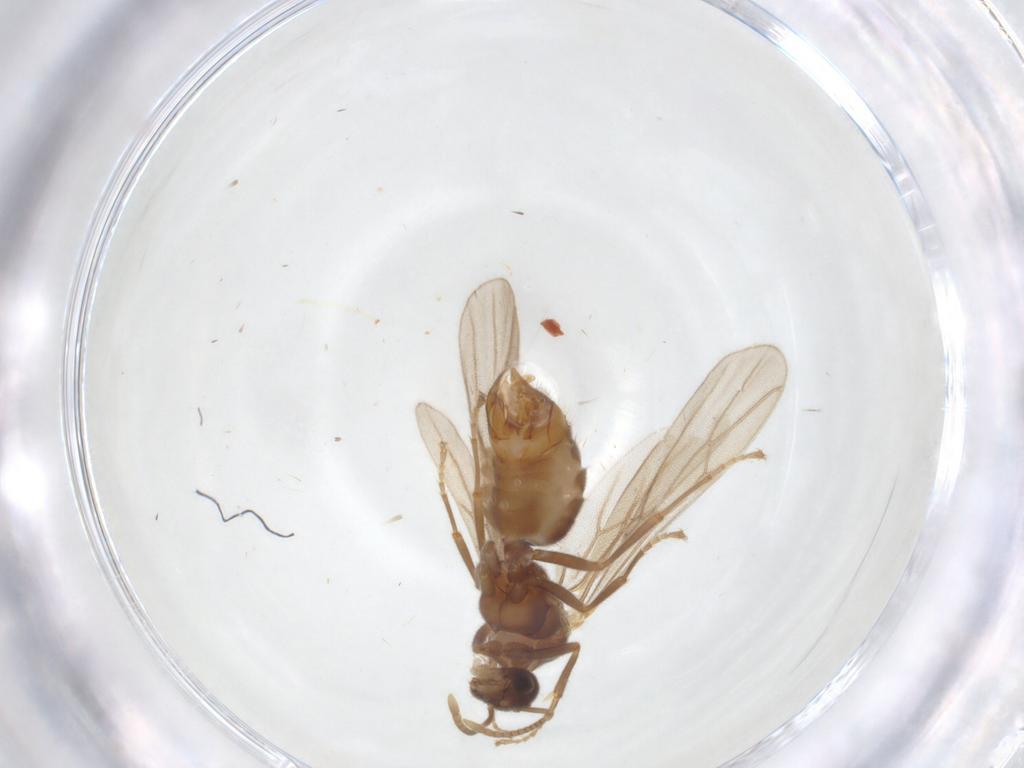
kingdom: Animalia
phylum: Arthropoda
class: Insecta
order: Hymenoptera
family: Formicidae
